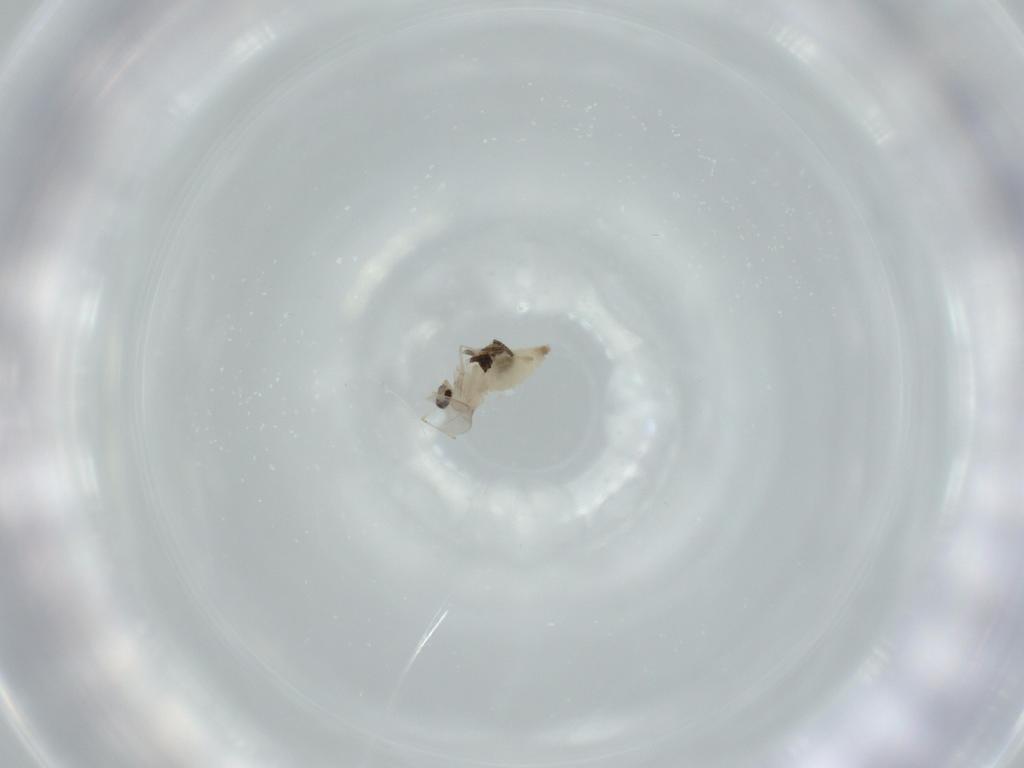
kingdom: Animalia
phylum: Arthropoda
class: Insecta
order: Diptera
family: Cecidomyiidae
